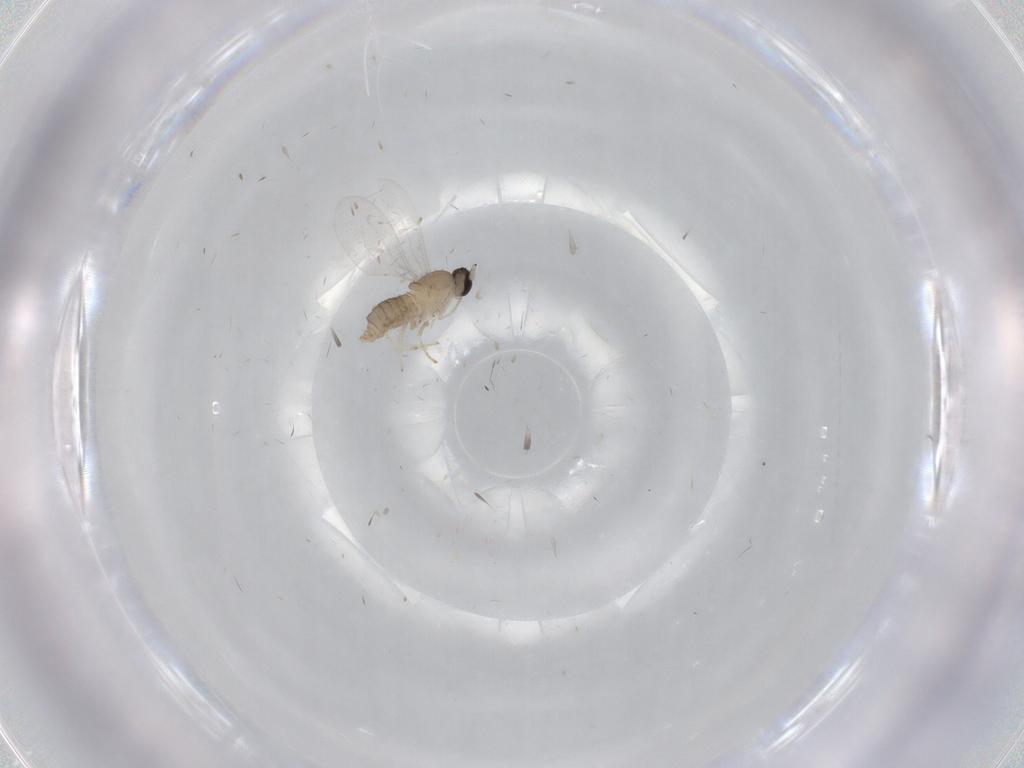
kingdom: Animalia
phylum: Arthropoda
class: Insecta
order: Diptera
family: Cecidomyiidae
